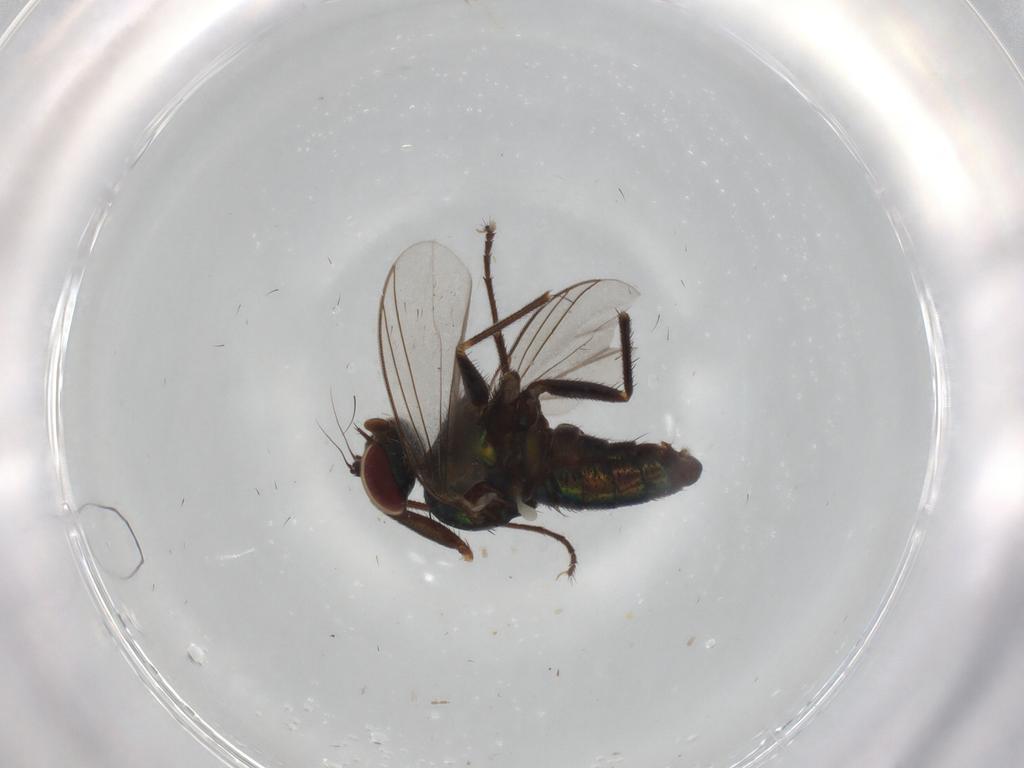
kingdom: Animalia
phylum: Arthropoda
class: Insecta
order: Diptera
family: Dolichopodidae
